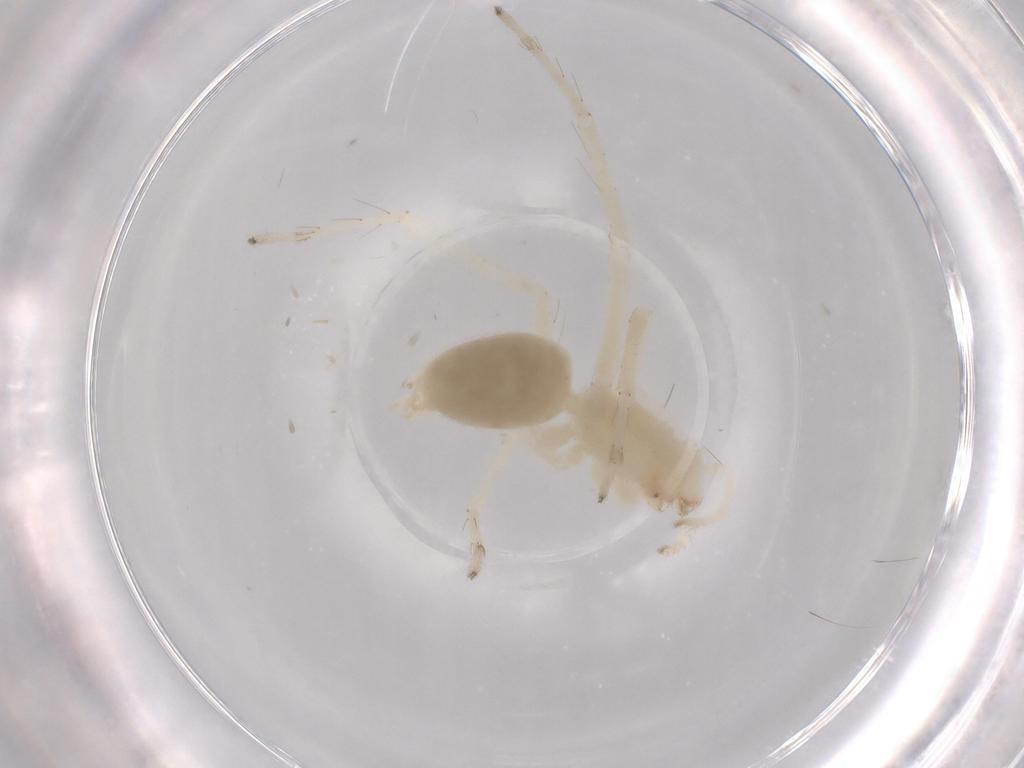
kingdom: Animalia
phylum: Arthropoda
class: Arachnida
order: Araneae
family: Anyphaenidae
